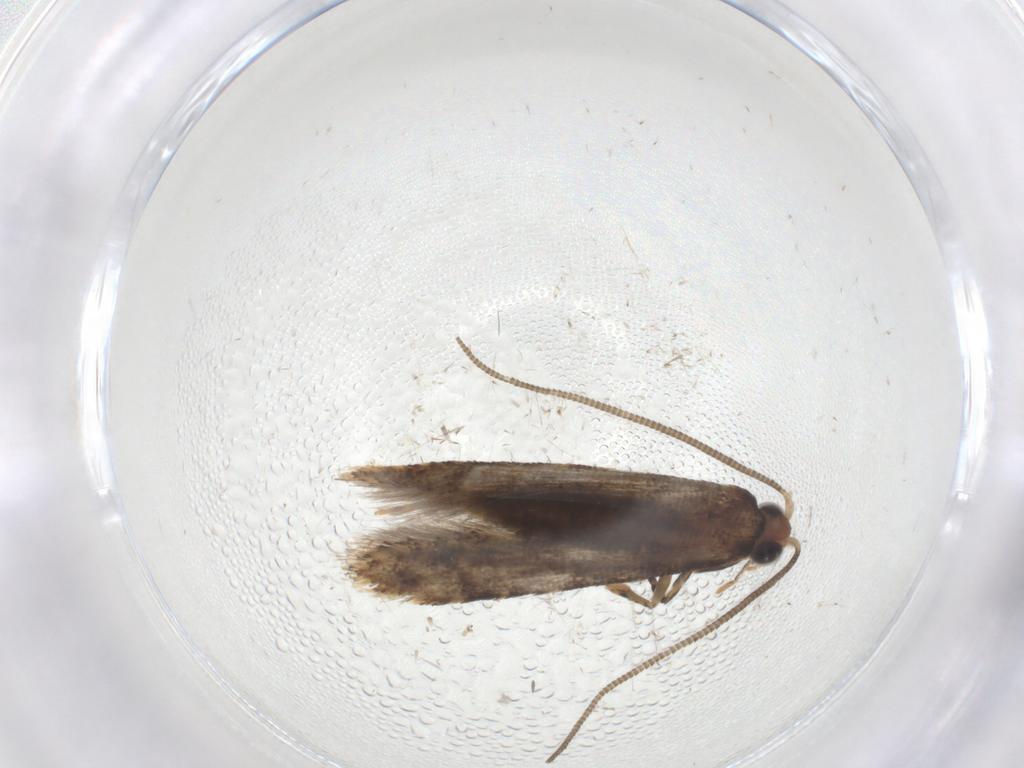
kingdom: Animalia
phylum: Arthropoda
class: Insecta
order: Lepidoptera
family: Tineidae
